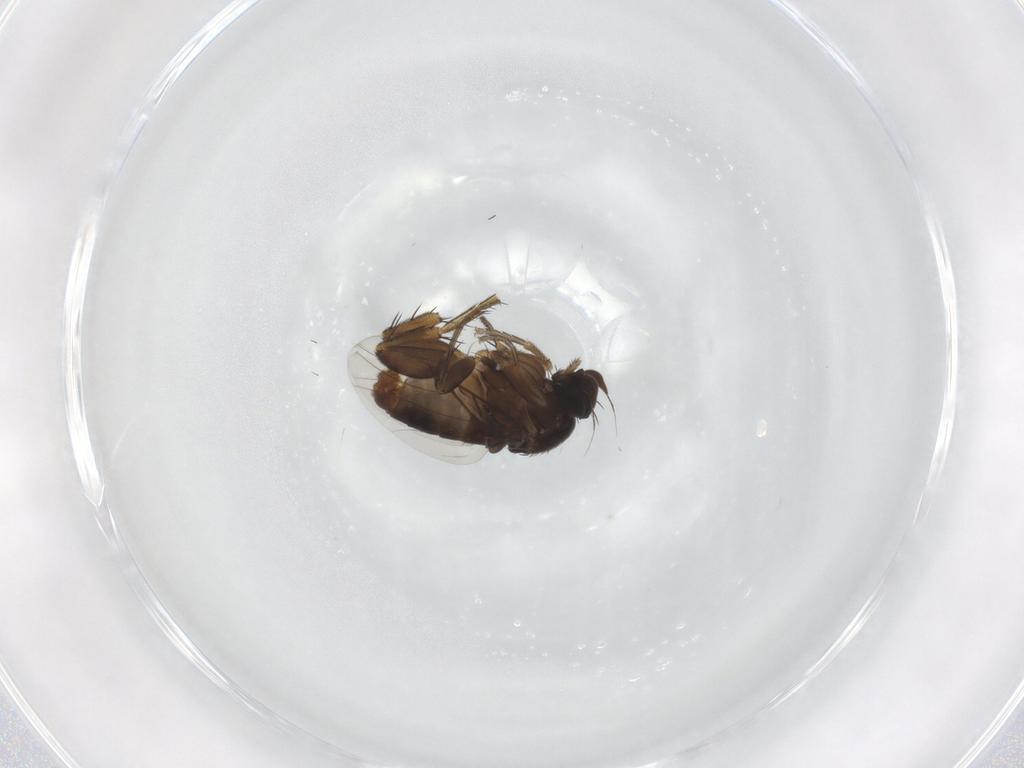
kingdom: Animalia
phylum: Arthropoda
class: Insecta
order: Diptera
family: Phoridae
